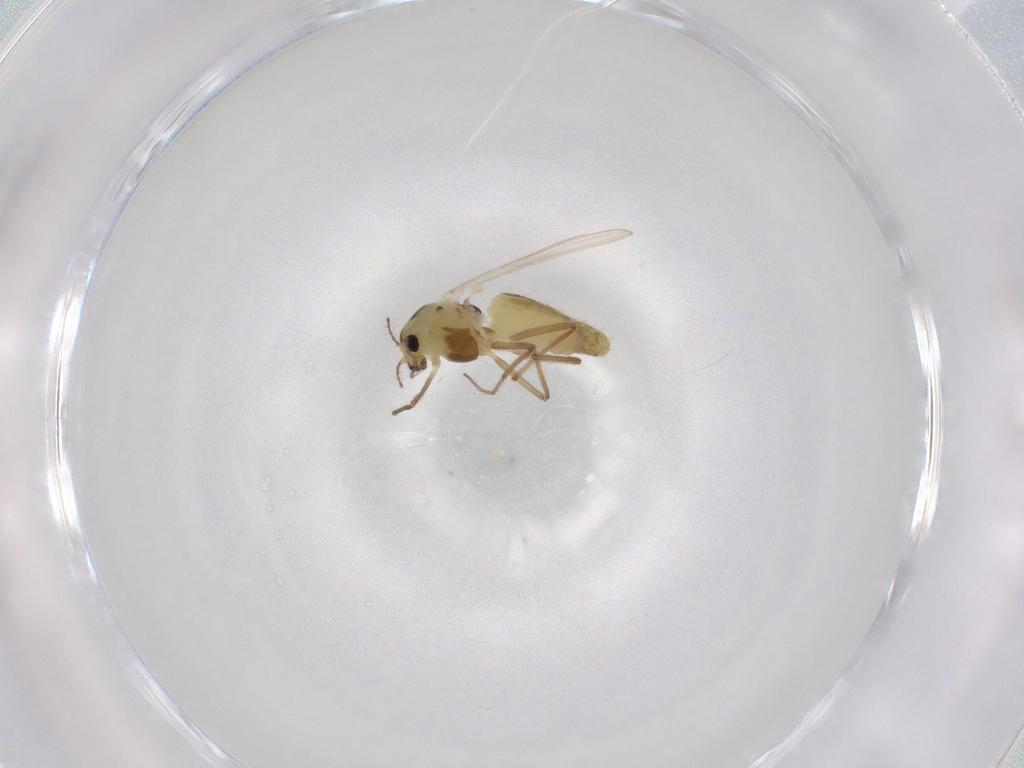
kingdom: Animalia
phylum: Arthropoda
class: Insecta
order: Diptera
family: Chironomidae
